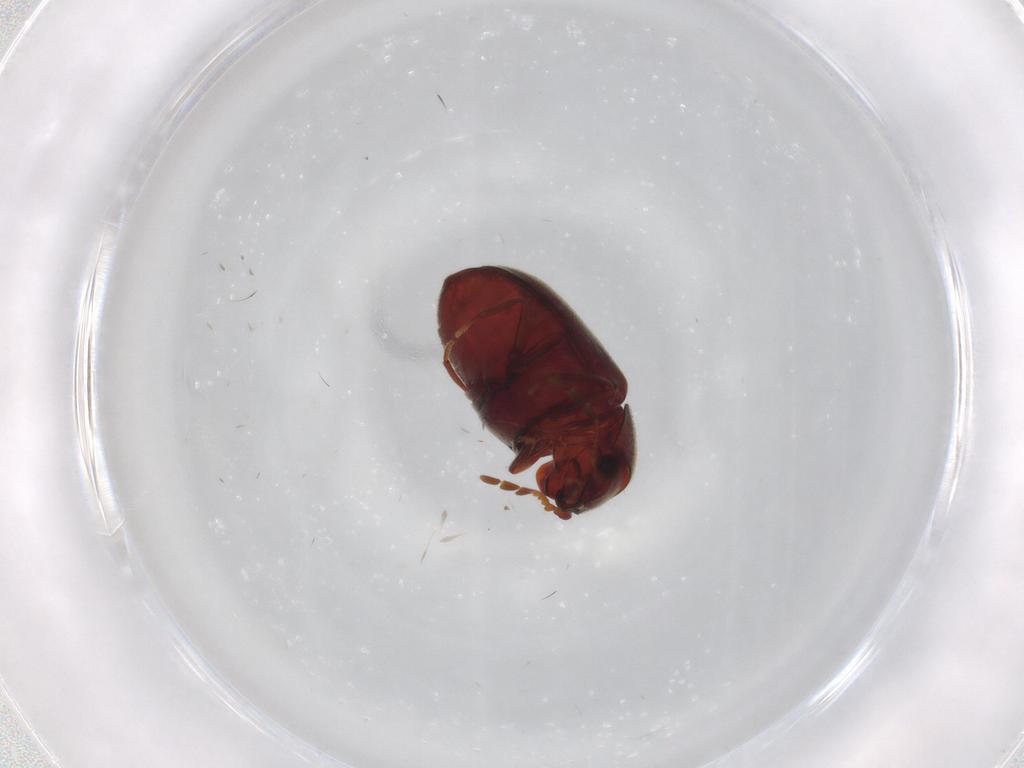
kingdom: Animalia
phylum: Arthropoda
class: Insecta
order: Coleoptera
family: Ptinidae
